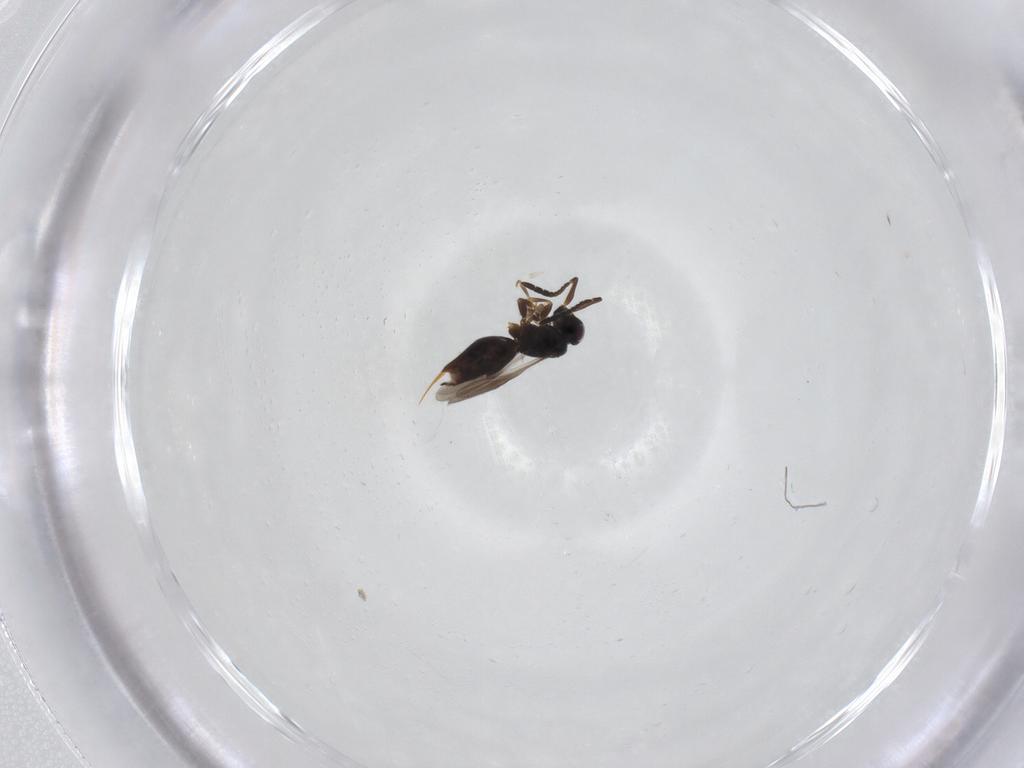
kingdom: Animalia
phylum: Arthropoda
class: Insecta
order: Hymenoptera
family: Ceraphronidae
